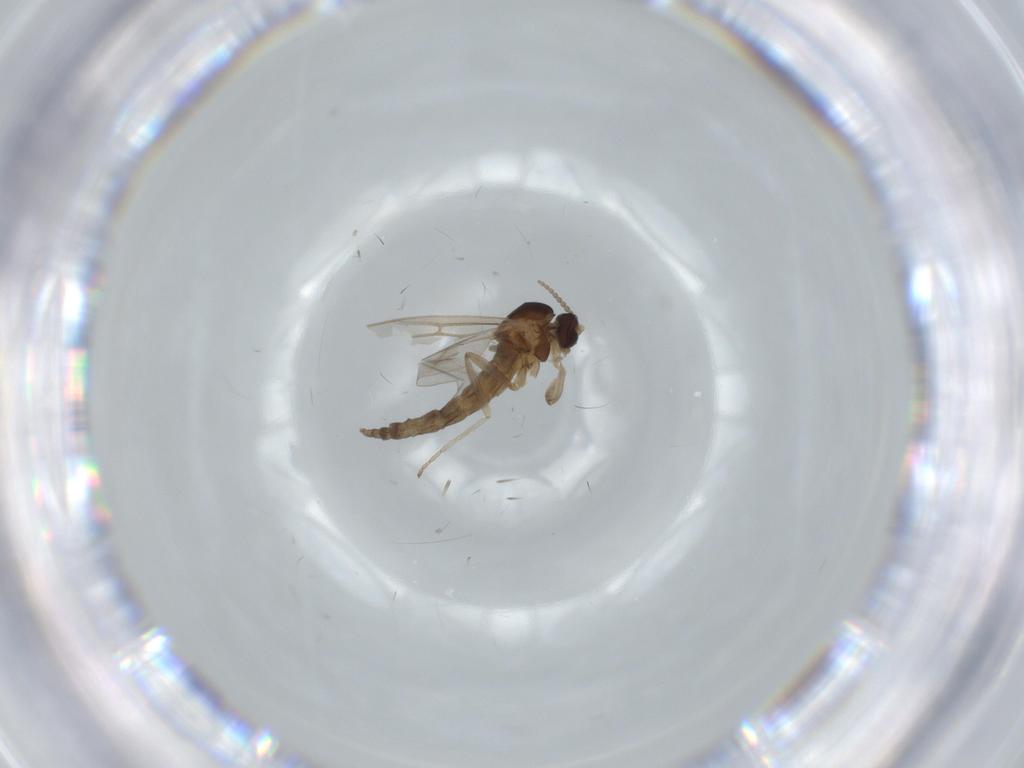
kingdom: Animalia
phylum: Arthropoda
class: Insecta
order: Diptera
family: Cecidomyiidae
